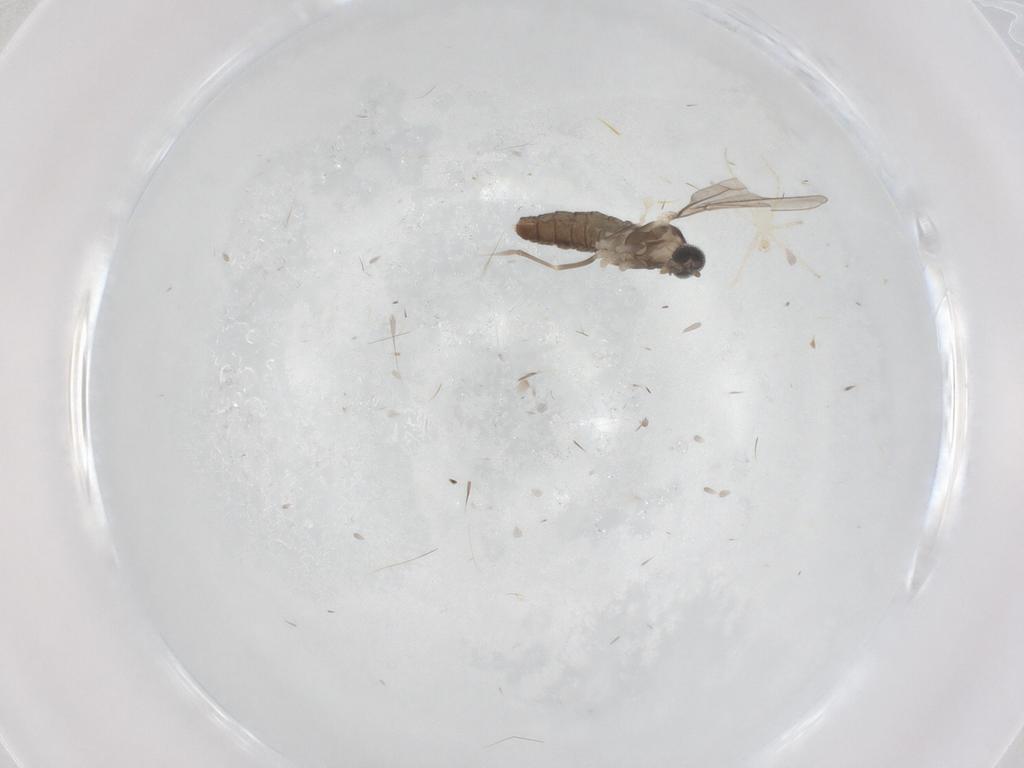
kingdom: Animalia
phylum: Arthropoda
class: Insecta
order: Diptera
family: Cecidomyiidae
